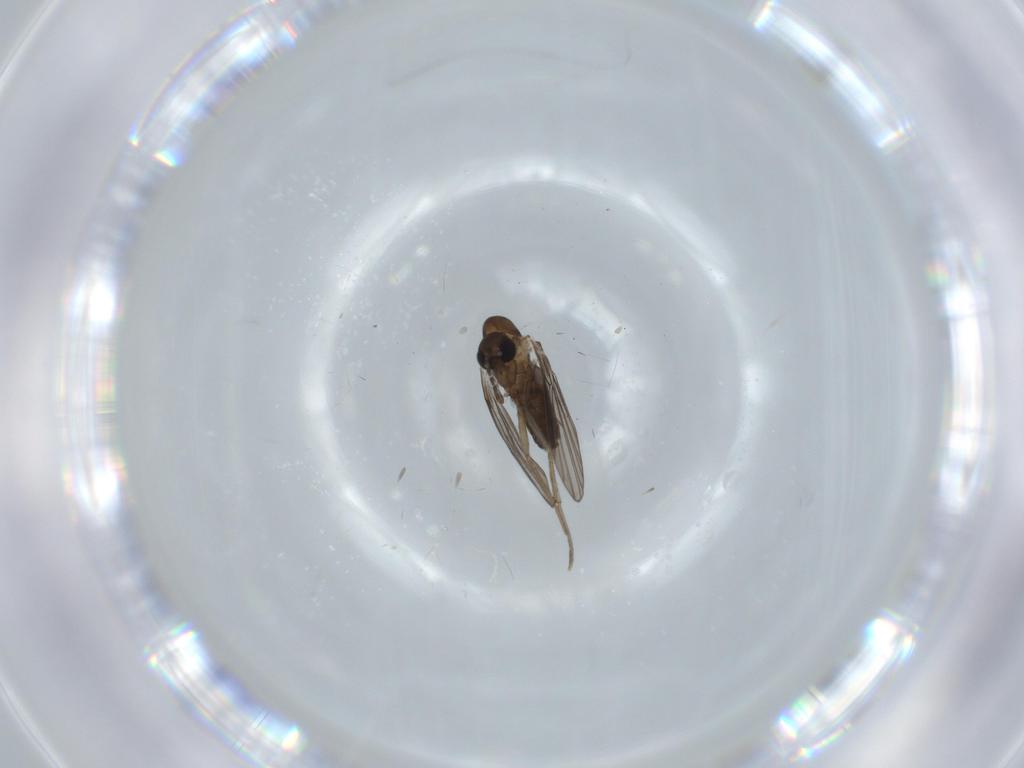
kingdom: Animalia
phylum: Arthropoda
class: Insecta
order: Diptera
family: Psychodidae
